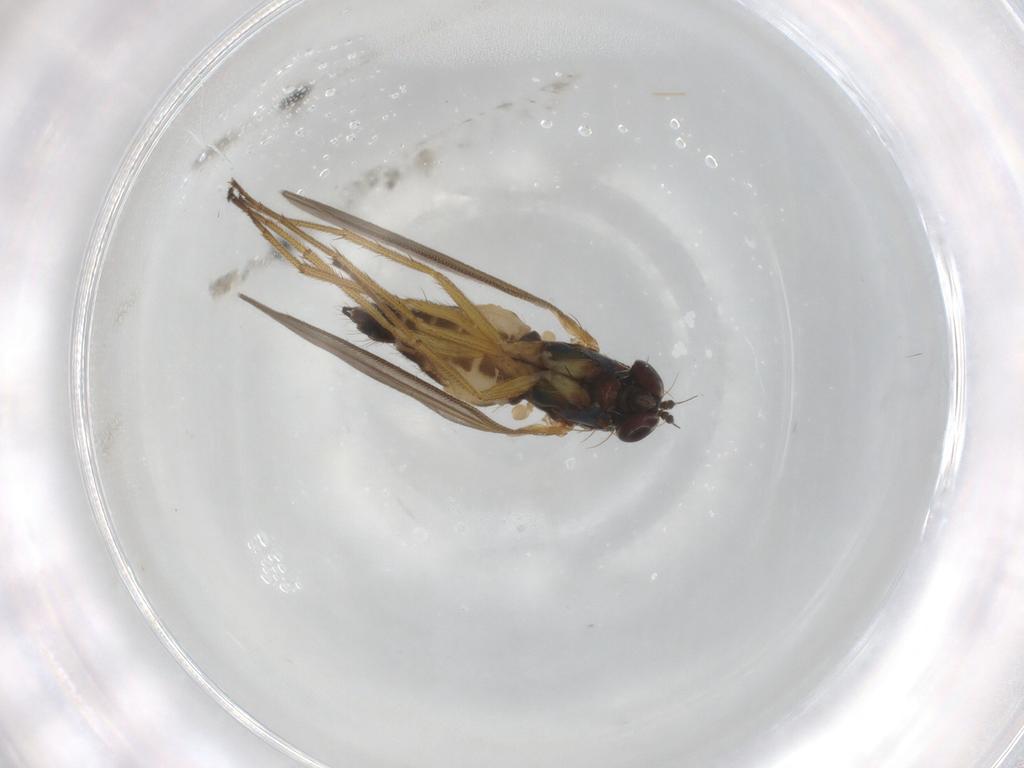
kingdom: Animalia
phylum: Arthropoda
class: Insecta
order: Diptera
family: Dolichopodidae
